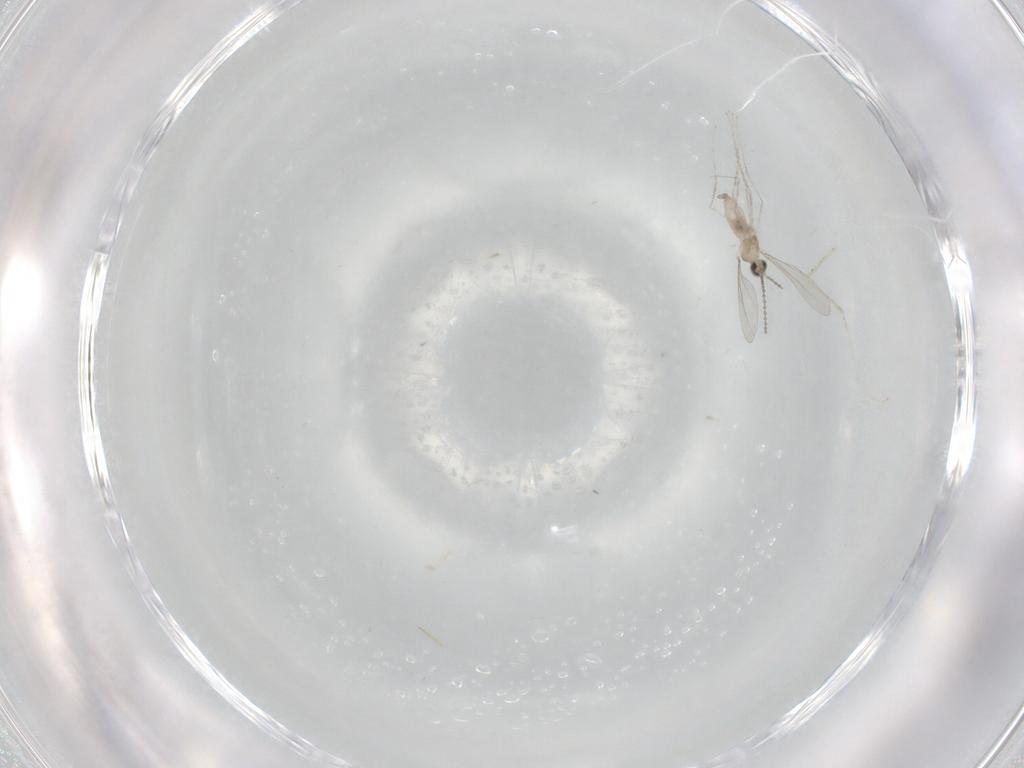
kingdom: Animalia
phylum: Arthropoda
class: Insecta
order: Diptera
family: Cecidomyiidae
